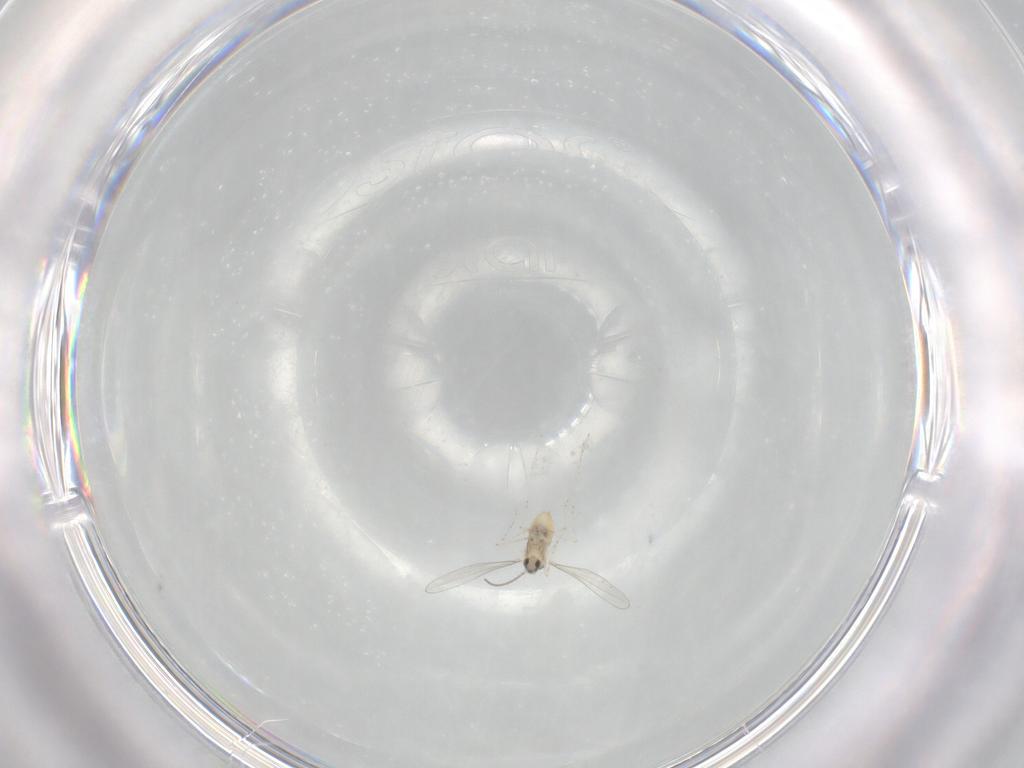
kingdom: Animalia
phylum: Arthropoda
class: Insecta
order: Diptera
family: Cecidomyiidae
